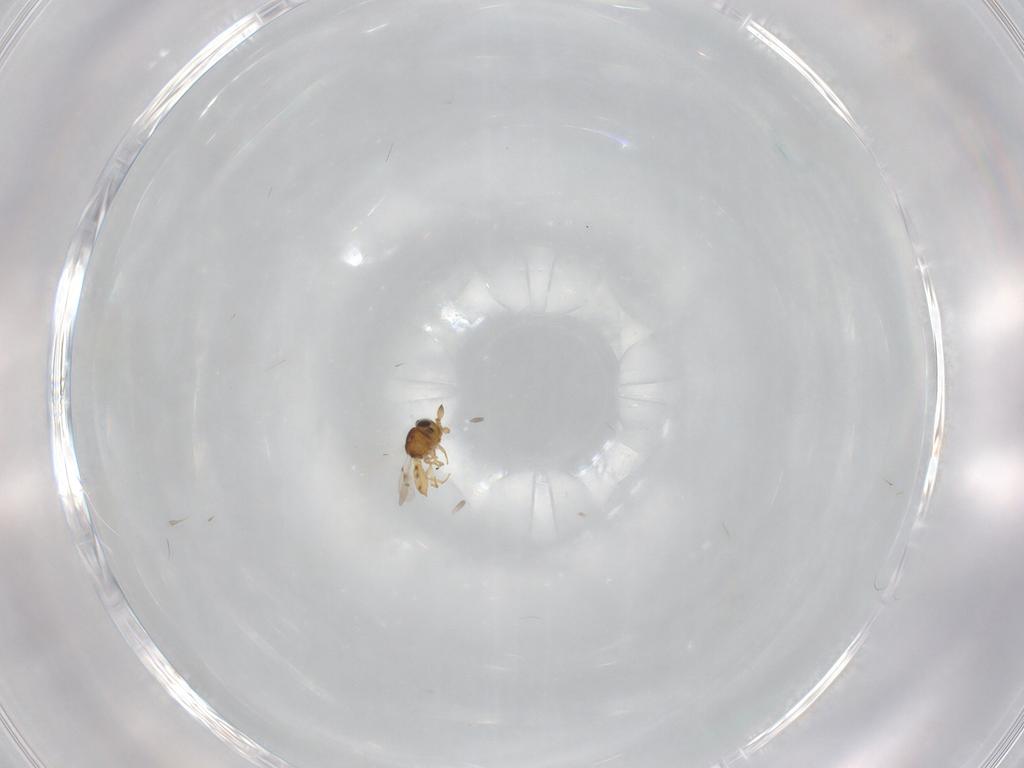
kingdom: Animalia
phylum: Arthropoda
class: Insecta
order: Hymenoptera
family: Scelionidae
